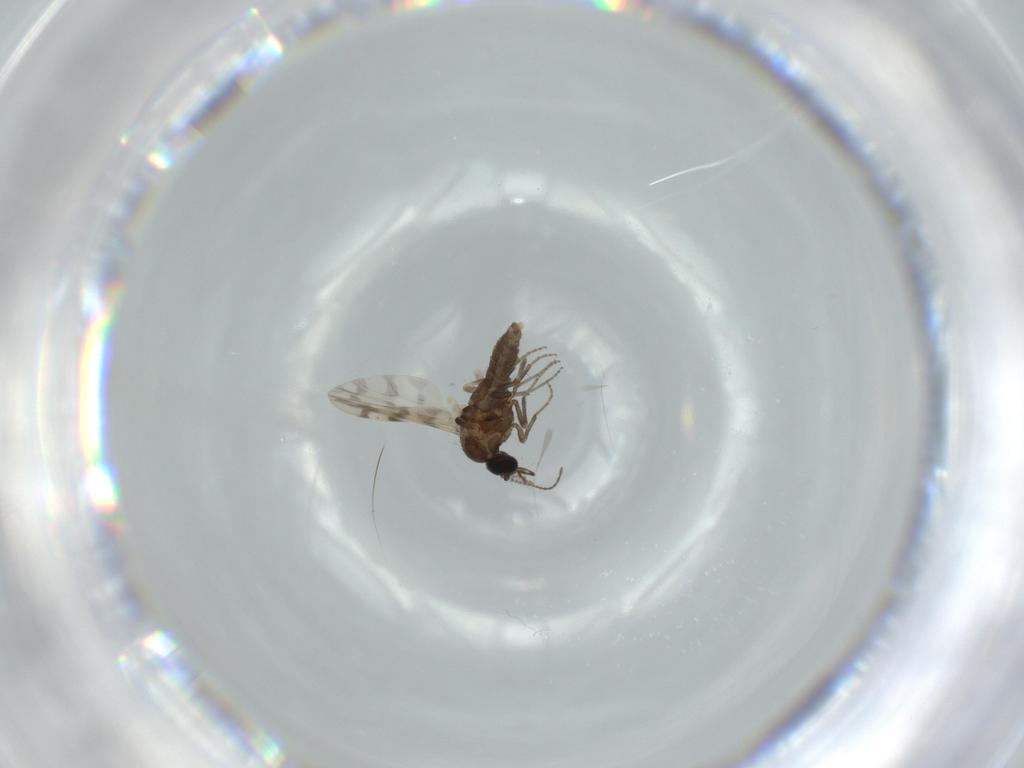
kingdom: Animalia
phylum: Arthropoda
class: Insecta
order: Diptera
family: Ceratopogonidae
